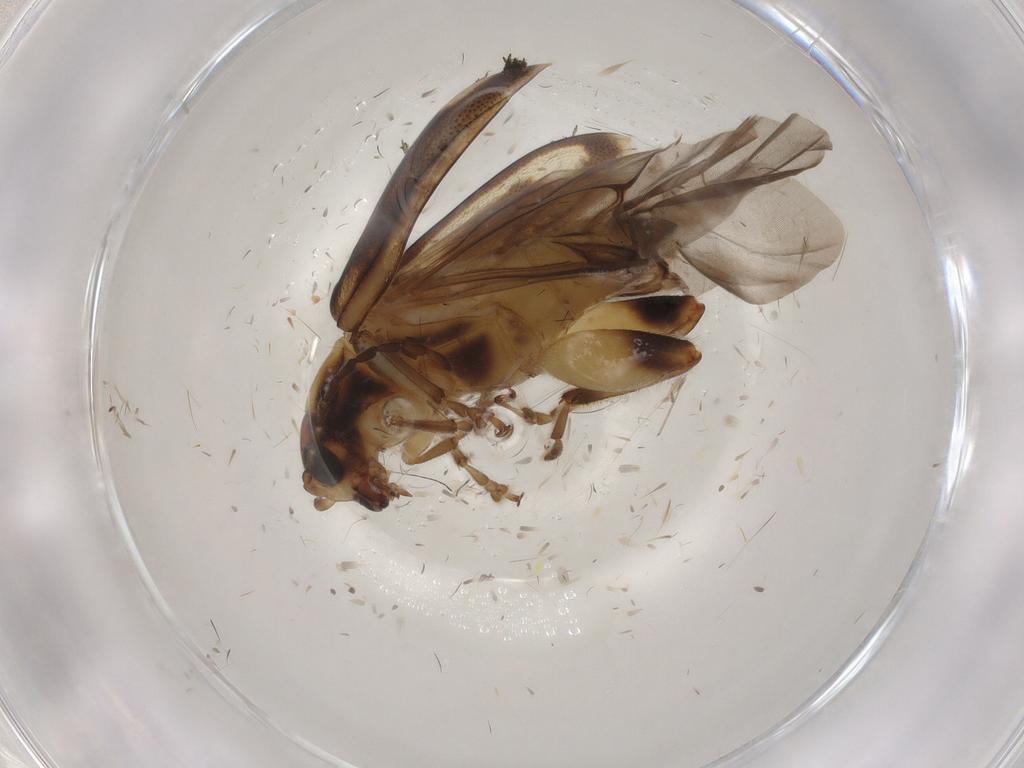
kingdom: Animalia
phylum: Arthropoda
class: Insecta
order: Coleoptera
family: Chrysomelidae
